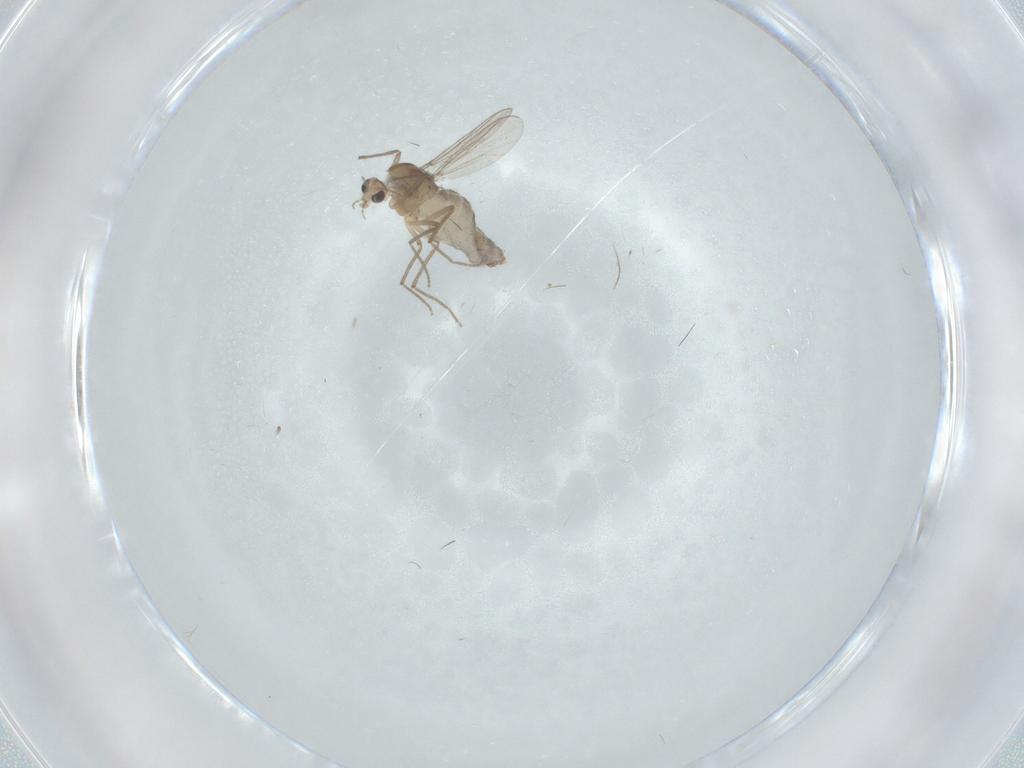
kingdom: Animalia
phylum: Arthropoda
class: Insecta
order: Diptera
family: Chironomidae
